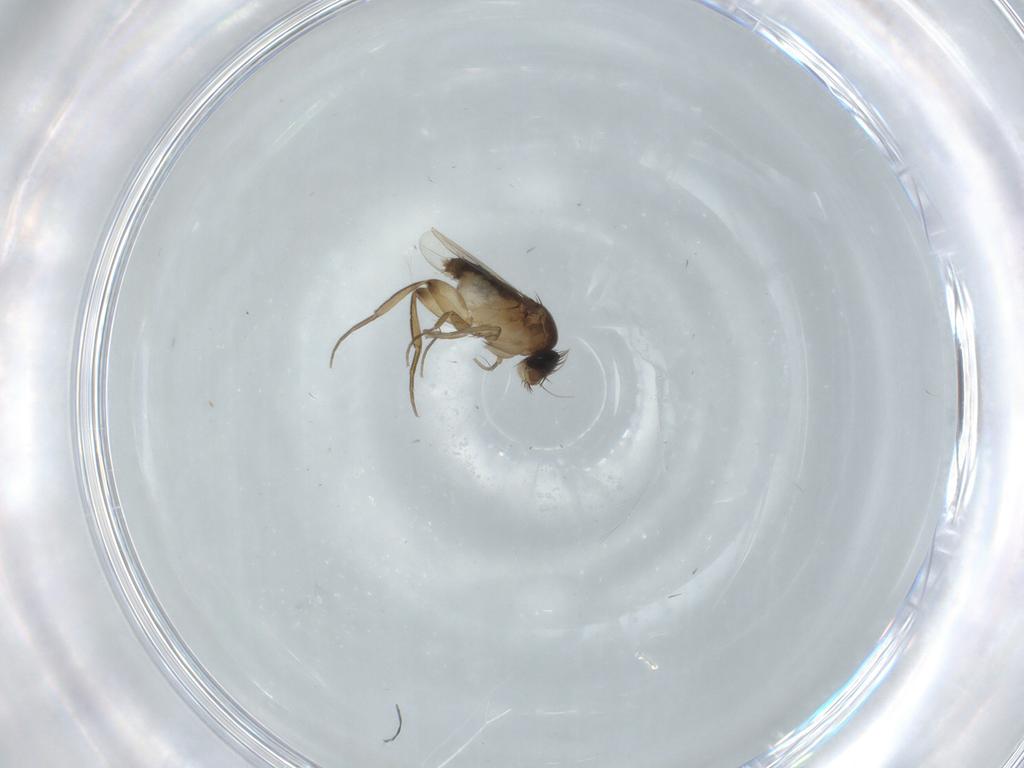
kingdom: Animalia
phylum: Arthropoda
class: Insecta
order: Diptera
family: Phoridae
